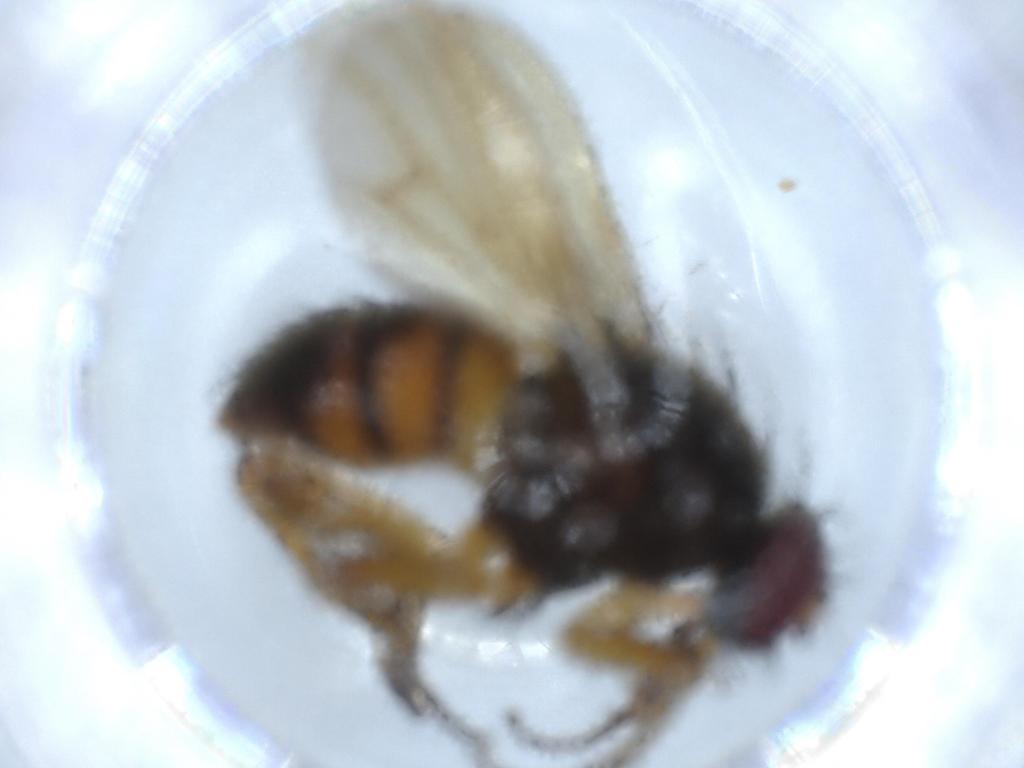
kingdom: Animalia
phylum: Arthropoda
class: Insecta
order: Diptera
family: Muscidae
